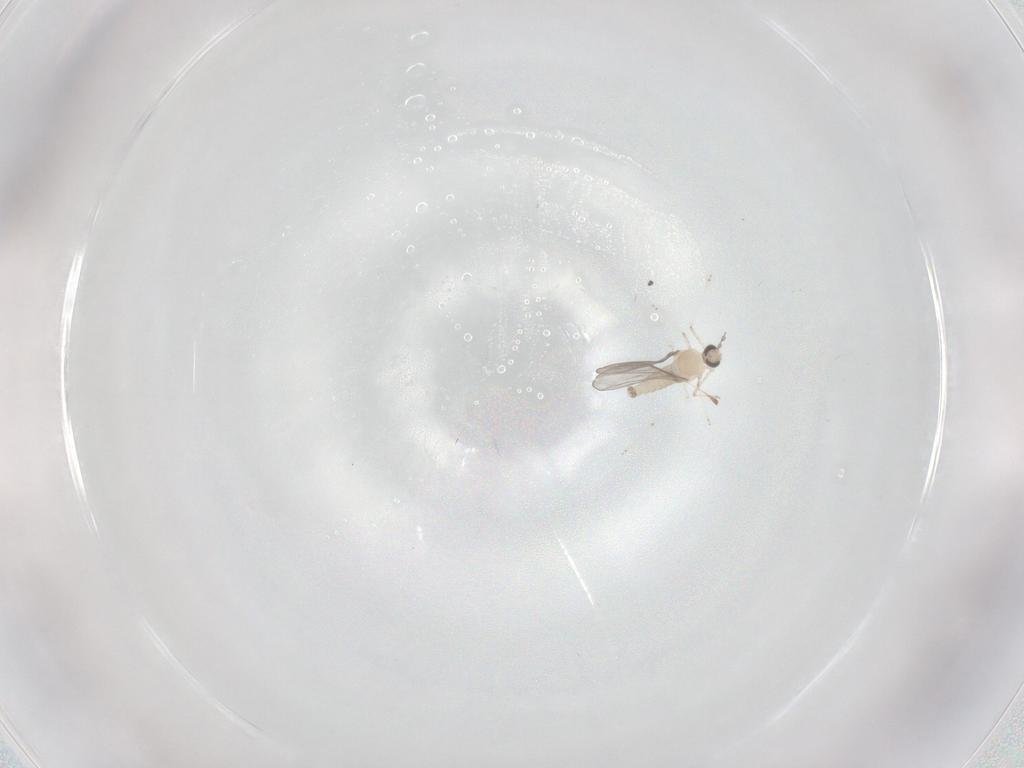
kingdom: Animalia
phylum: Arthropoda
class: Insecta
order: Diptera
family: Cecidomyiidae
